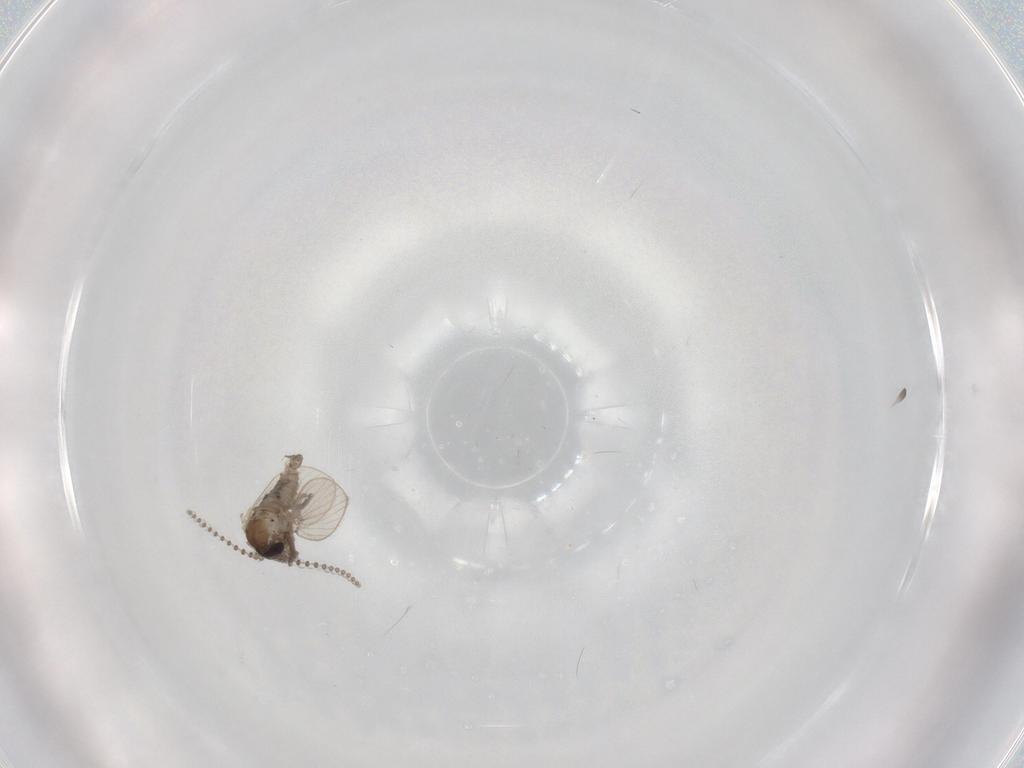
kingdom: Animalia
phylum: Arthropoda
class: Insecta
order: Diptera
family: Psychodidae
